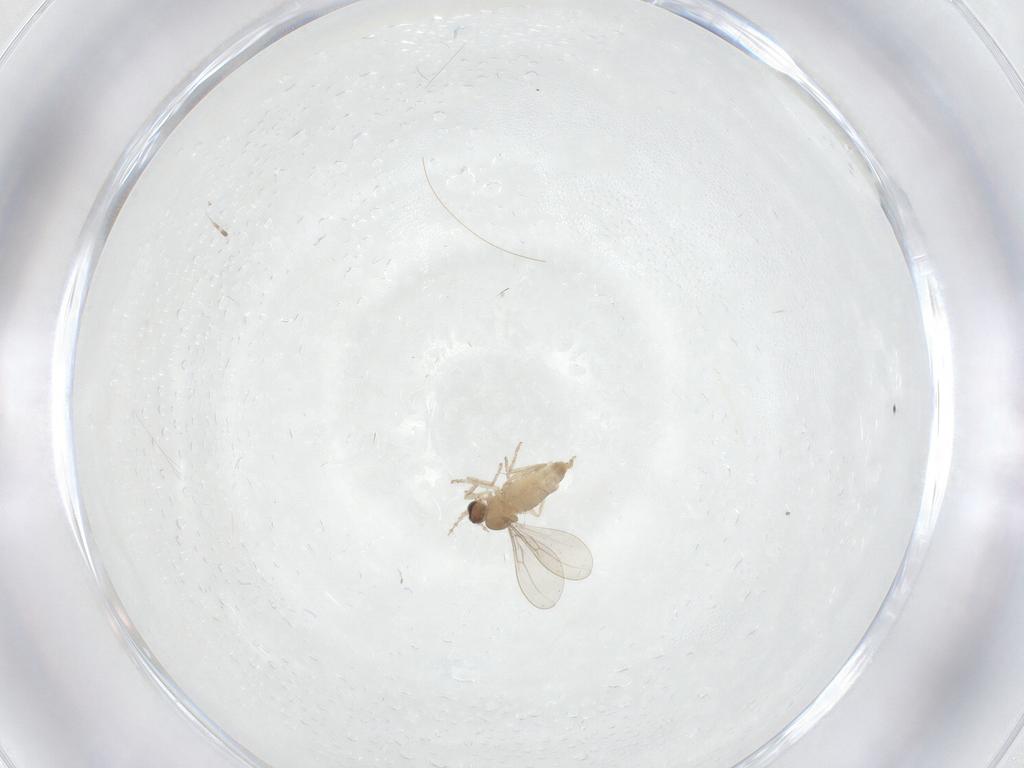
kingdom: Animalia
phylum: Arthropoda
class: Insecta
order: Diptera
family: Cecidomyiidae
